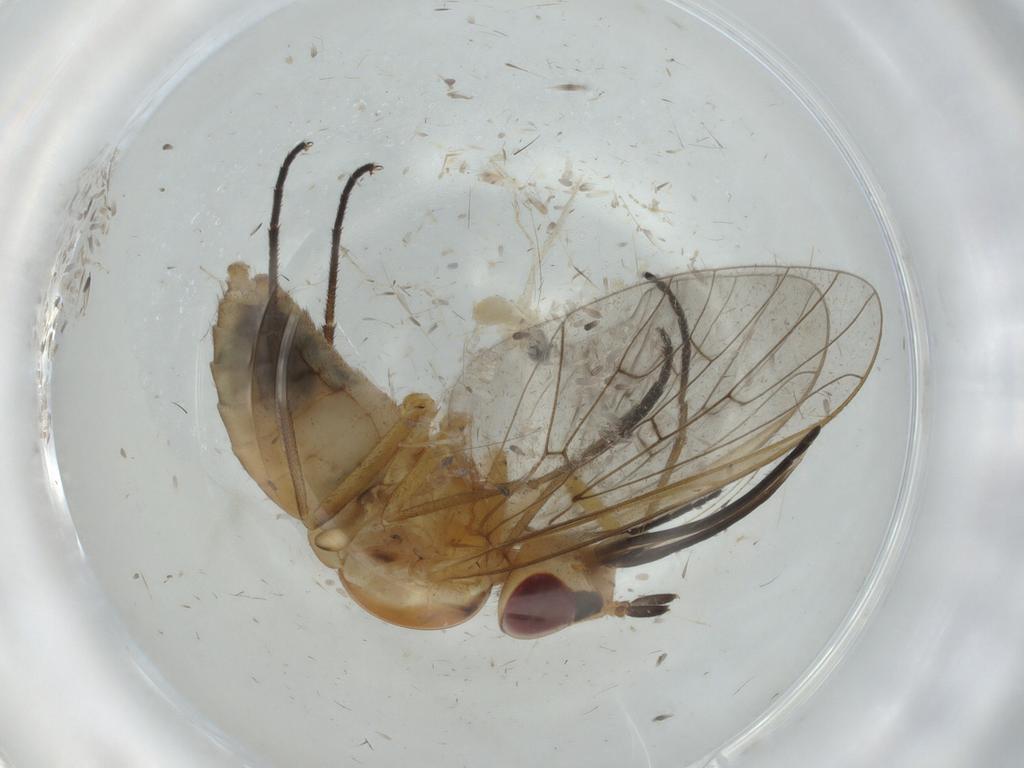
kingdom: Animalia
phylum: Arthropoda
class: Insecta
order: Diptera
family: Bombyliidae
